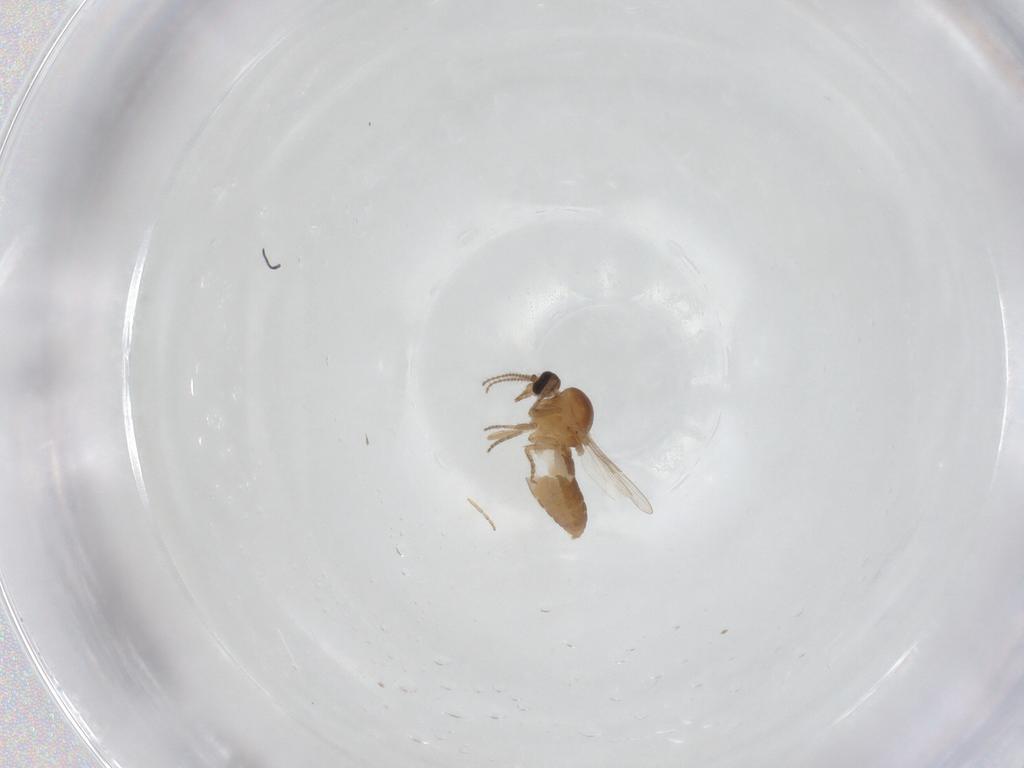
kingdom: Animalia
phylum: Arthropoda
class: Insecta
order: Diptera
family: Ceratopogonidae
